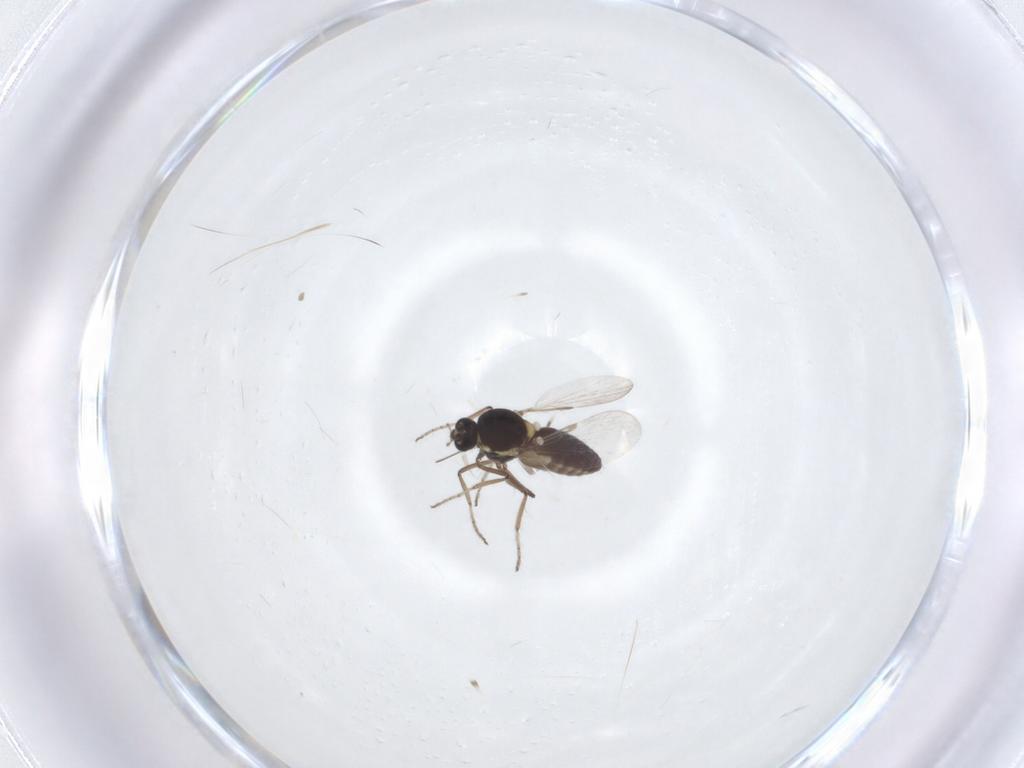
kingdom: Animalia
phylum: Arthropoda
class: Insecta
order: Diptera
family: Ceratopogonidae
